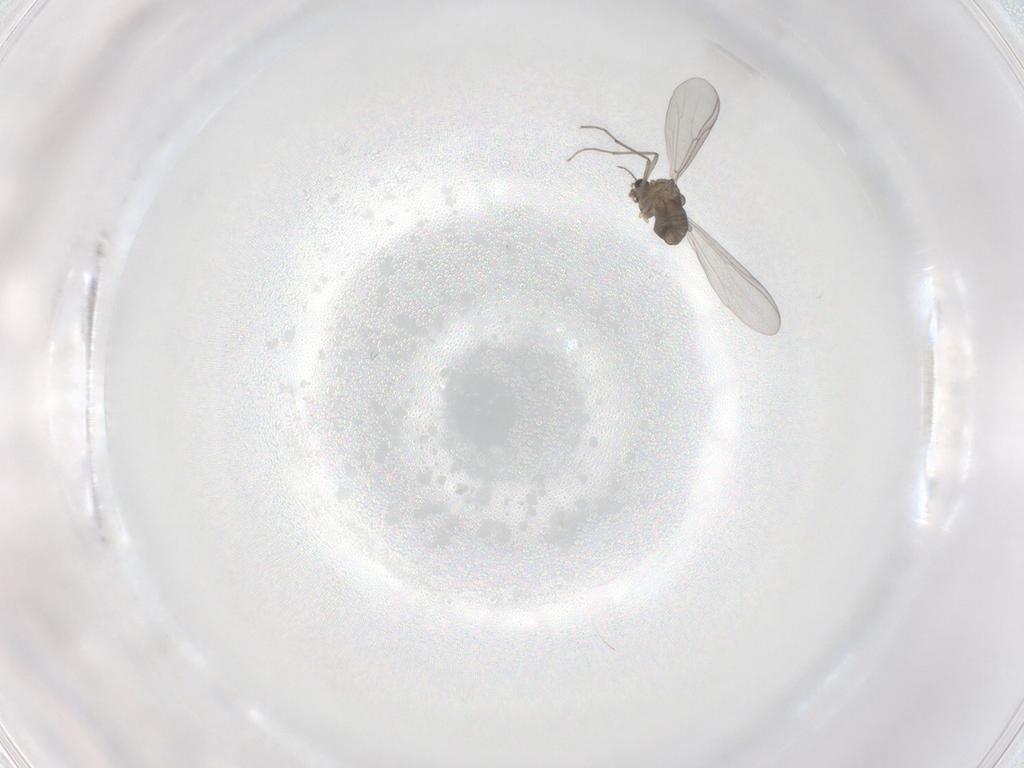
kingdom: Animalia
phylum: Arthropoda
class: Insecta
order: Diptera
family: Chironomidae
